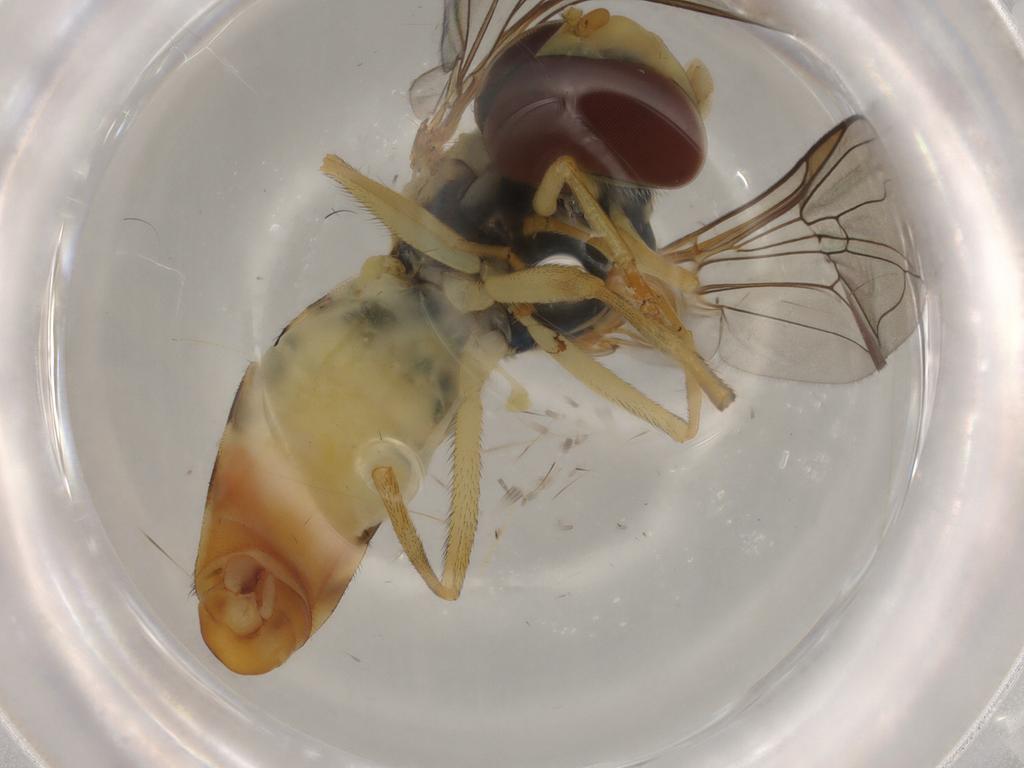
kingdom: Animalia
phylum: Arthropoda
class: Insecta
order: Diptera
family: Syrphidae
